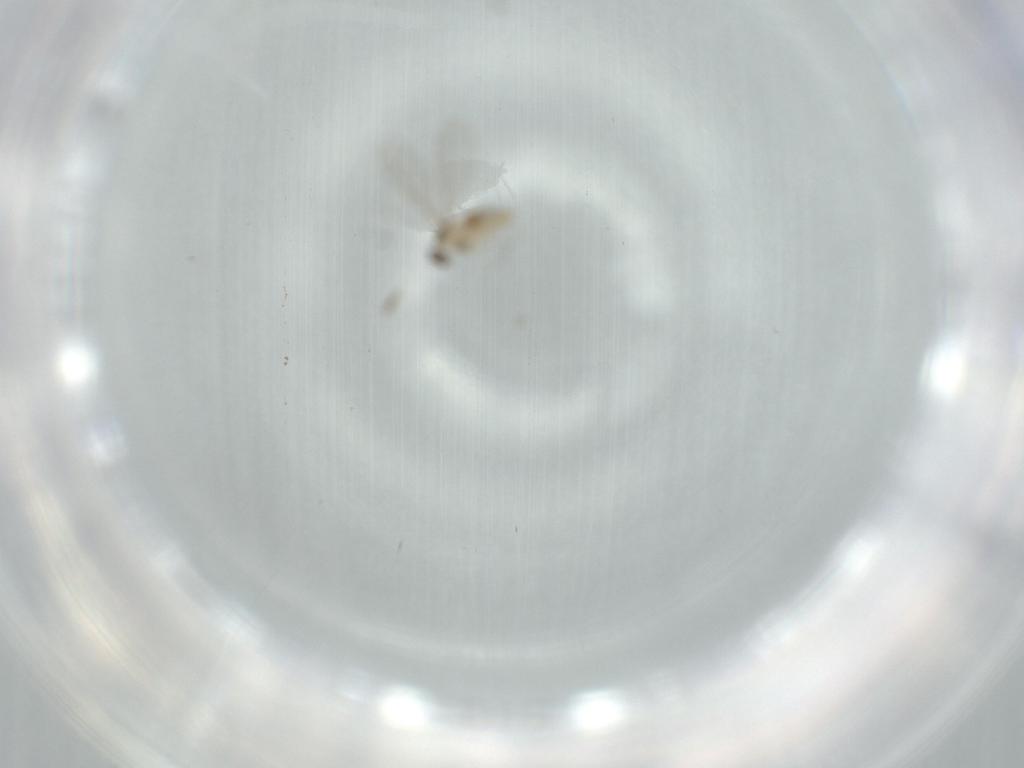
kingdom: Animalia
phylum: Arthropoda
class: Insecta
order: Diptera
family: Cecidomyiidae
